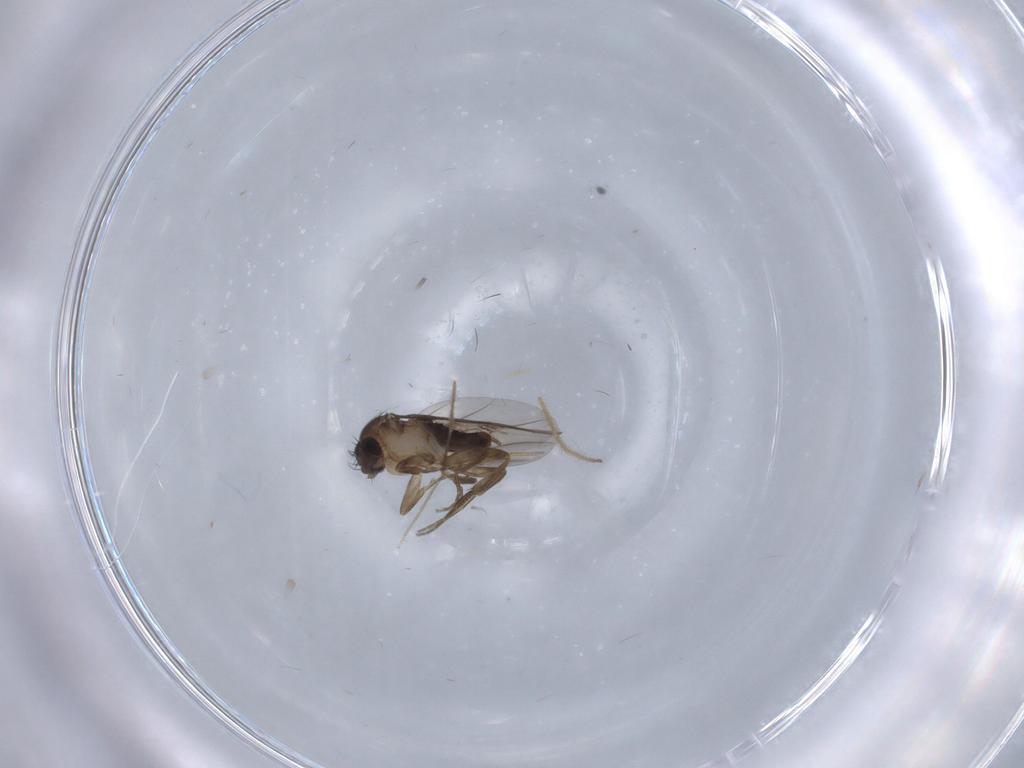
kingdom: Animalia
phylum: Arthropoda
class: Insecta
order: Diptera
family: Phoridae
